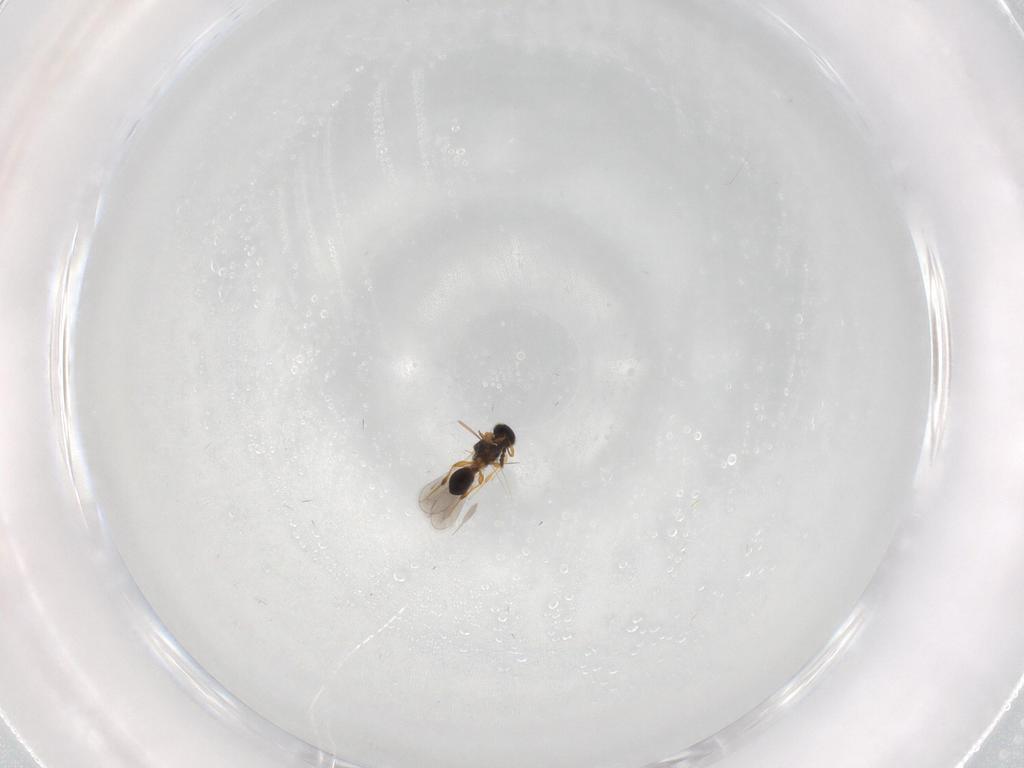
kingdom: Animalia
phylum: Arthropoda
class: Insecta
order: Hymenoptera
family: Platygastridae
